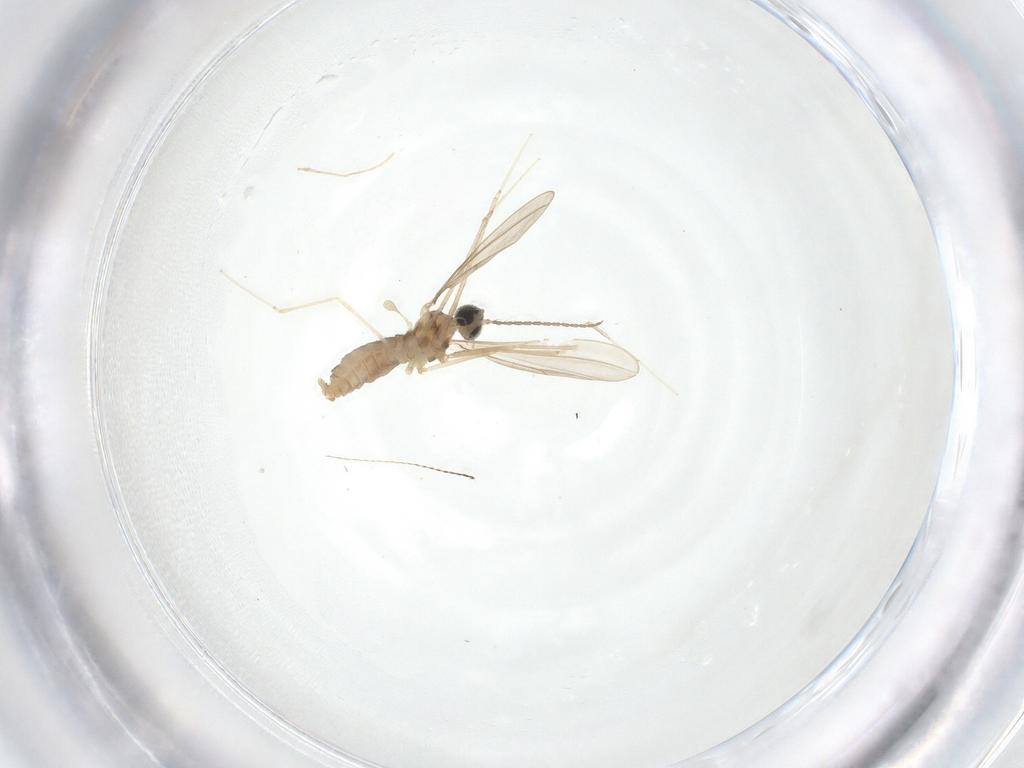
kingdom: Animalia
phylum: Arthropoda
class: Insecta
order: Diptera
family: Cecidomyiidae
